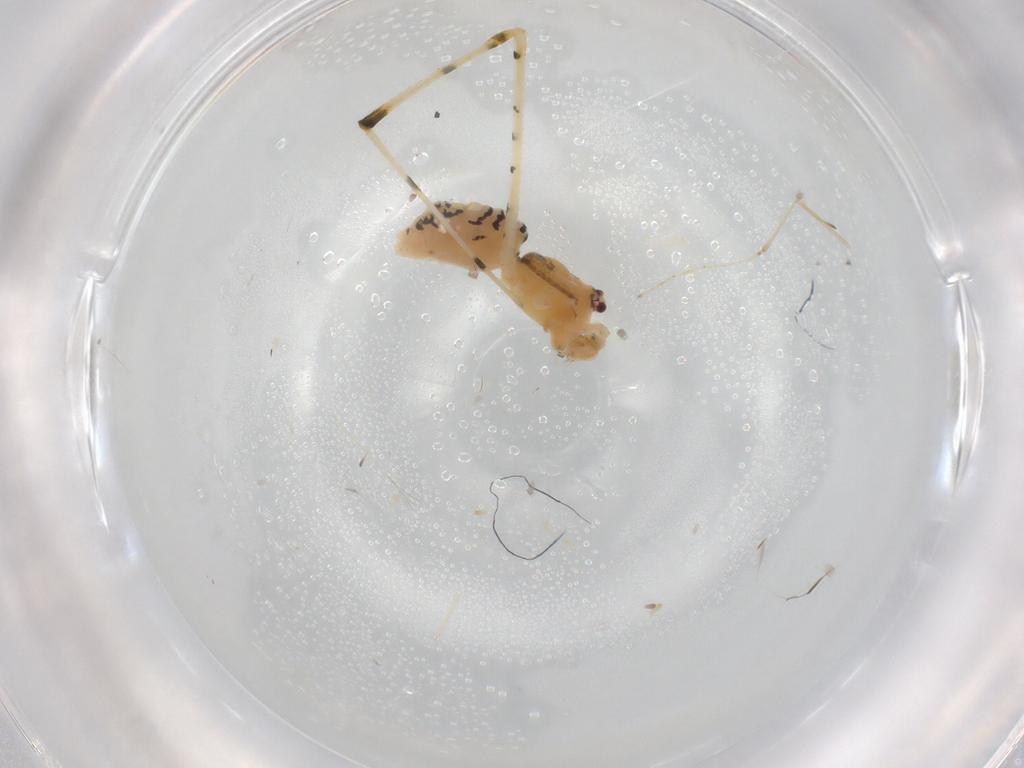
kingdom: Animalia
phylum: Arthropoda
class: Arachnida
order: Araneae
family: Theridiidae
